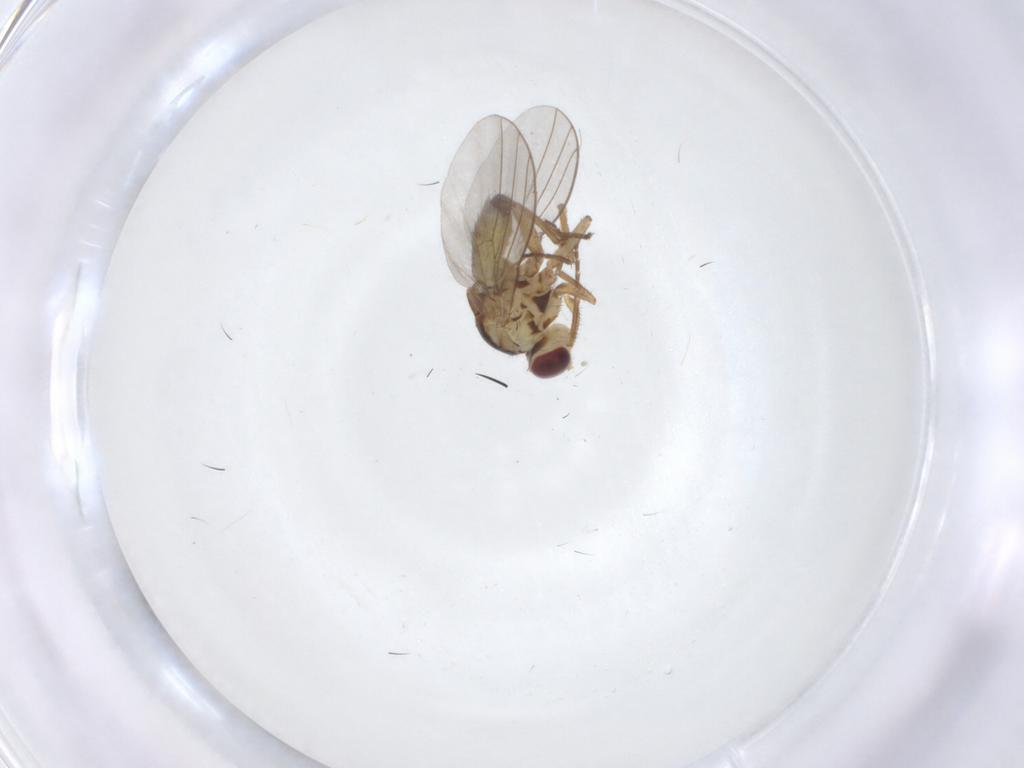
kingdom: Animalia
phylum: Arthropoda
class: Insecta
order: Diptera
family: Agromyzidae
